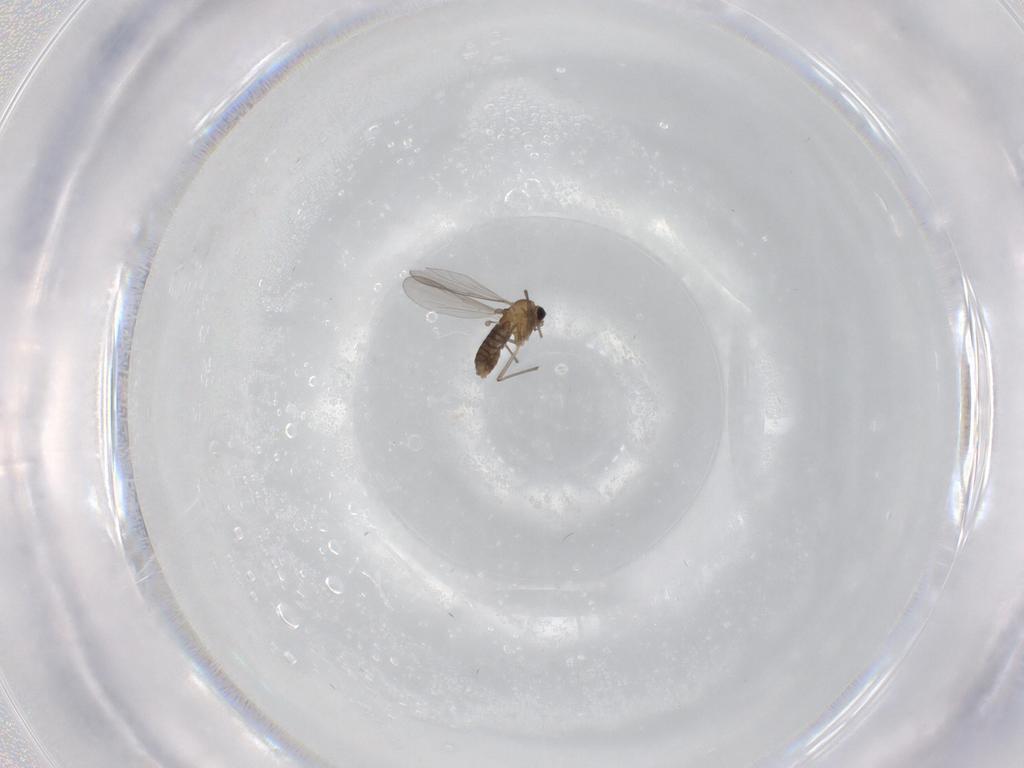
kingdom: Animalia
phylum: Arthropoda
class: Insecta
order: Diptera
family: Chironomidae
